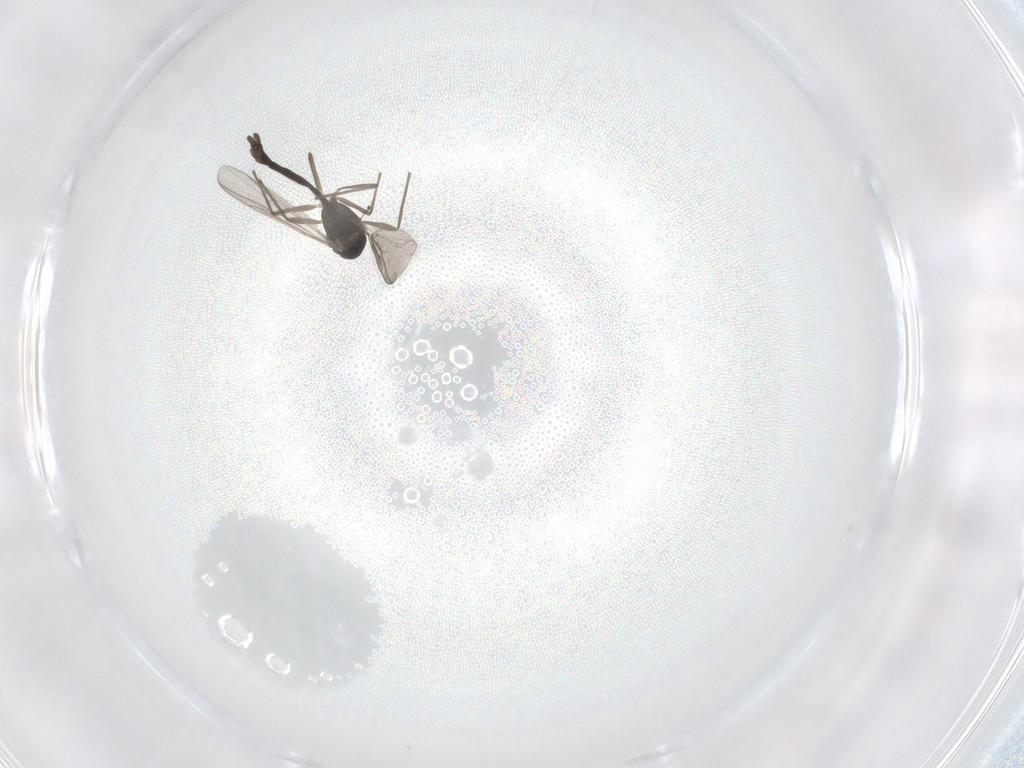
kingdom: Animalia
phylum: Arthropoda
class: Insecta
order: Diptera
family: Chironomidae
